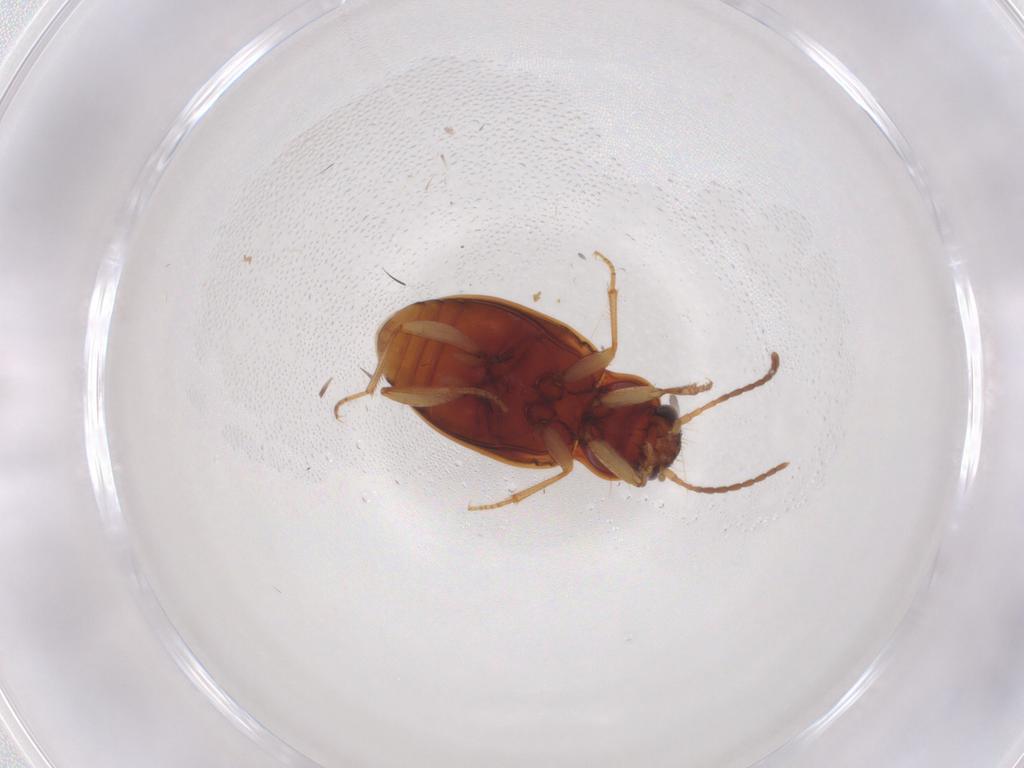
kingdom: Animalia
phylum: Arthropoda
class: Insecta
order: Coleoptera
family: Carabidae
